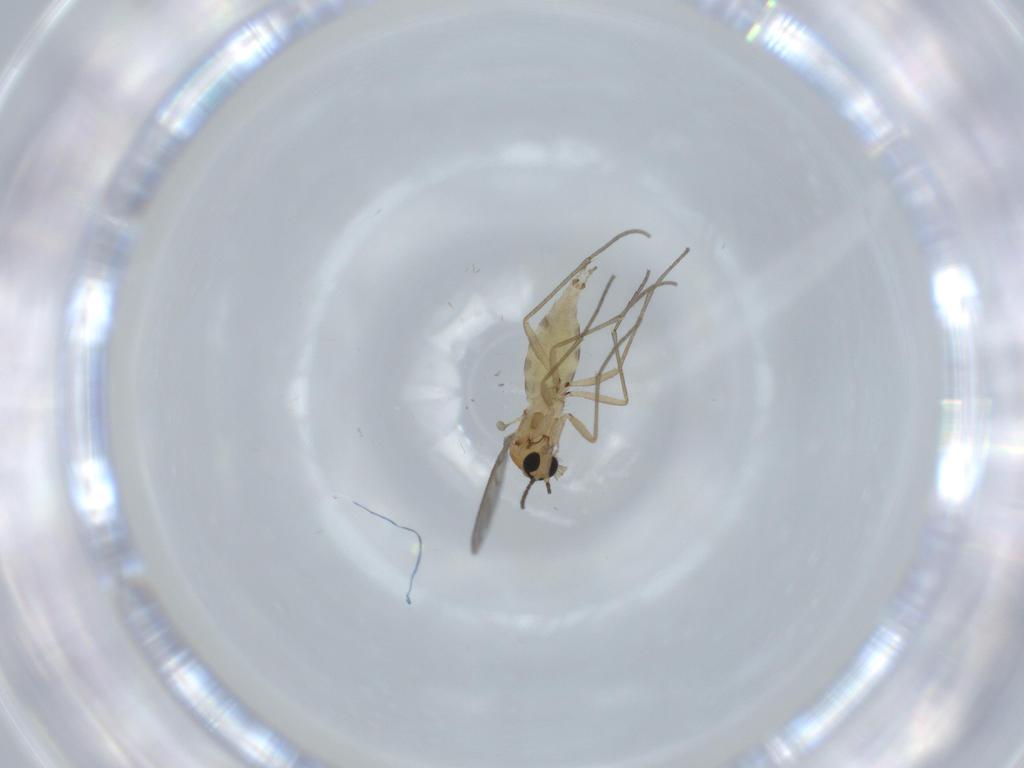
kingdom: Animalia
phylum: Arthropoda
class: Insecta
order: Diptera
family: Sciaridae
